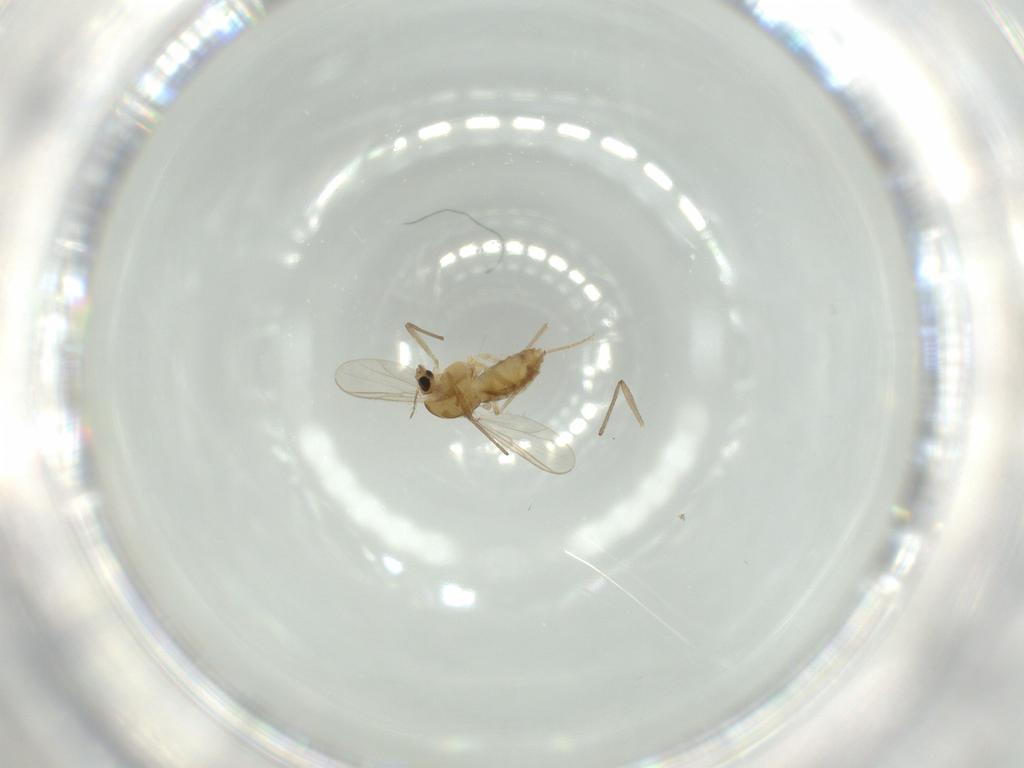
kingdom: Animalia
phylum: Arthropoda
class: Insecta
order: Diptera
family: Chironomidae
